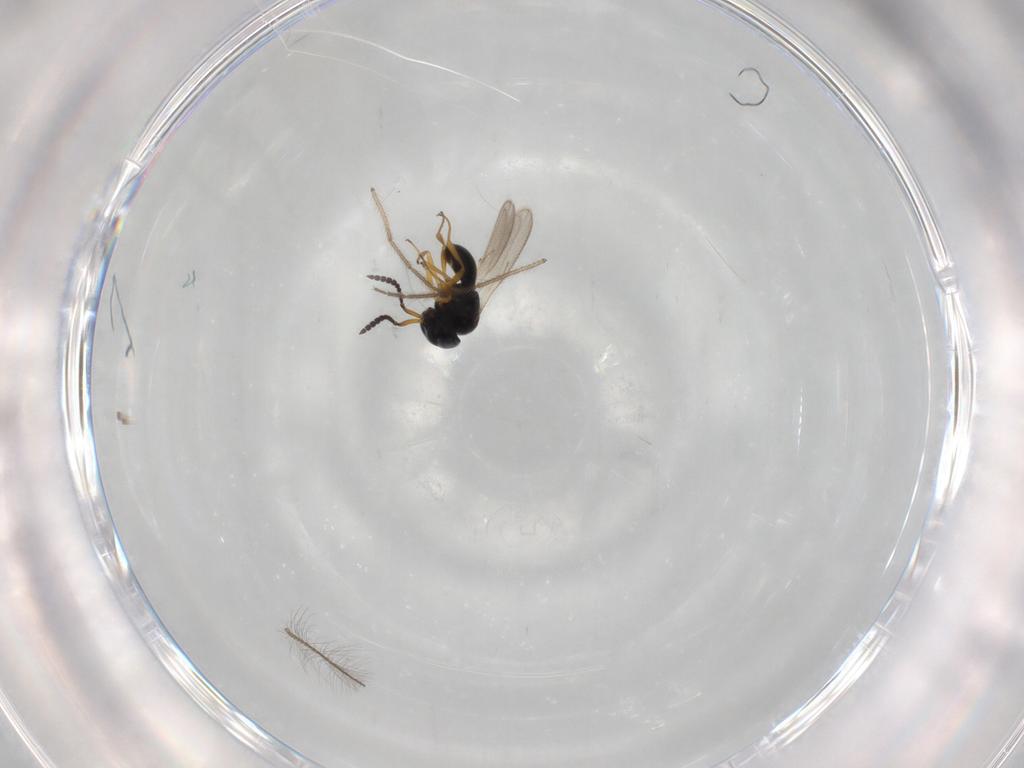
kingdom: Animalia
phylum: Arthropoda
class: Insecta
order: Hymenoptera
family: Scelionidae
